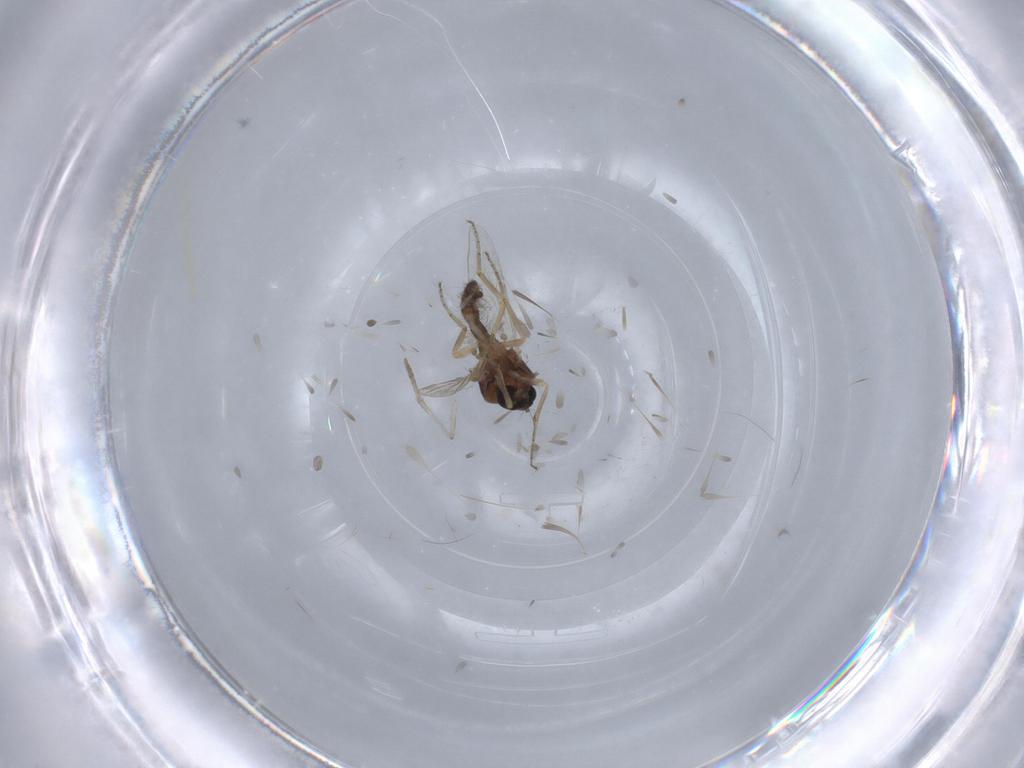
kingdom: Animalia
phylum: Arthropoda
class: Insecta
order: Diptera
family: Ceratopogonidae
